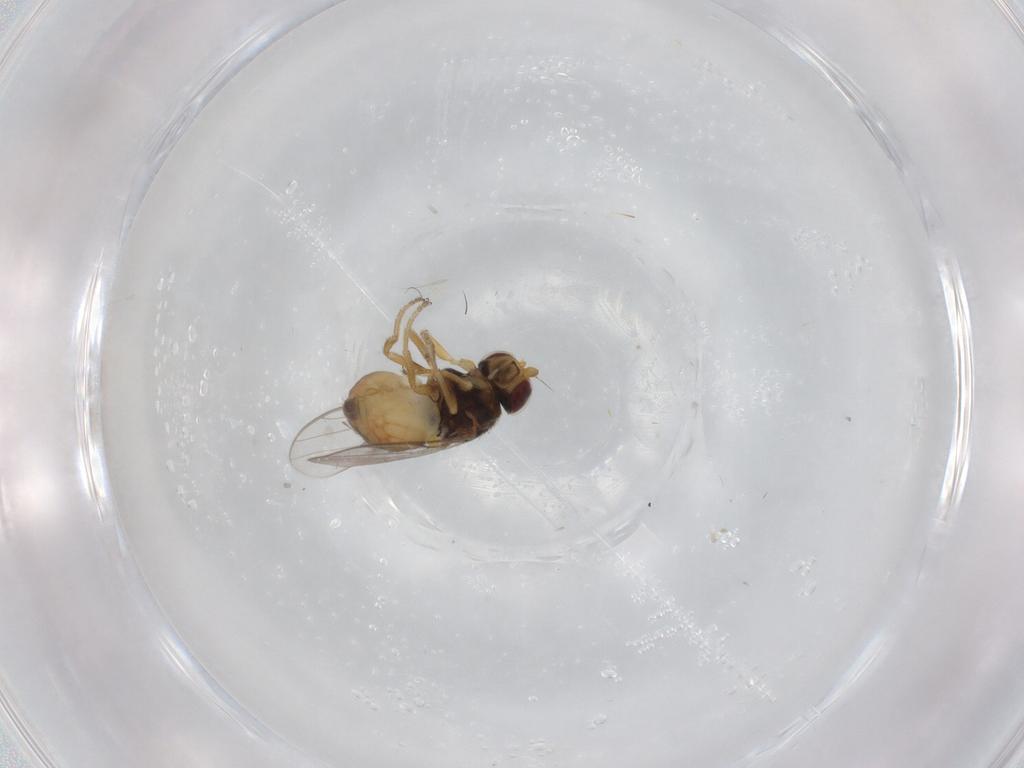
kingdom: Animalia
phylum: Arthropoda
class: Insecta
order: Diptera
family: Chloropidae
